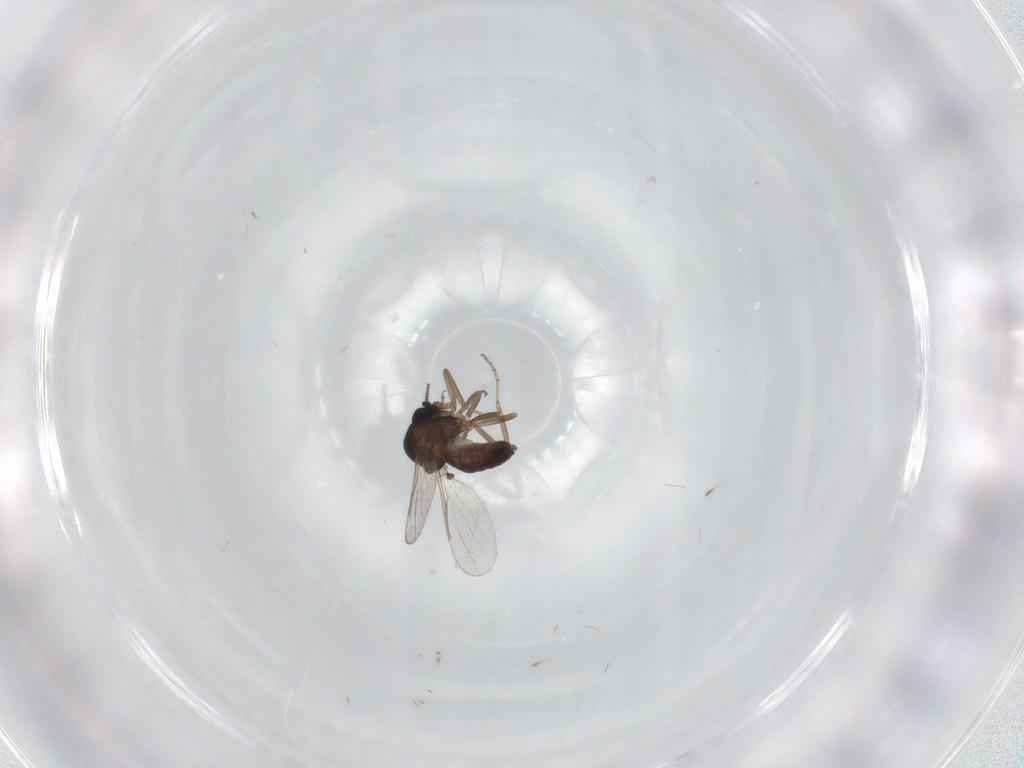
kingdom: Animalia
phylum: Arthropoda
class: Insecta
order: Diptera
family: Ceratopogonidae
